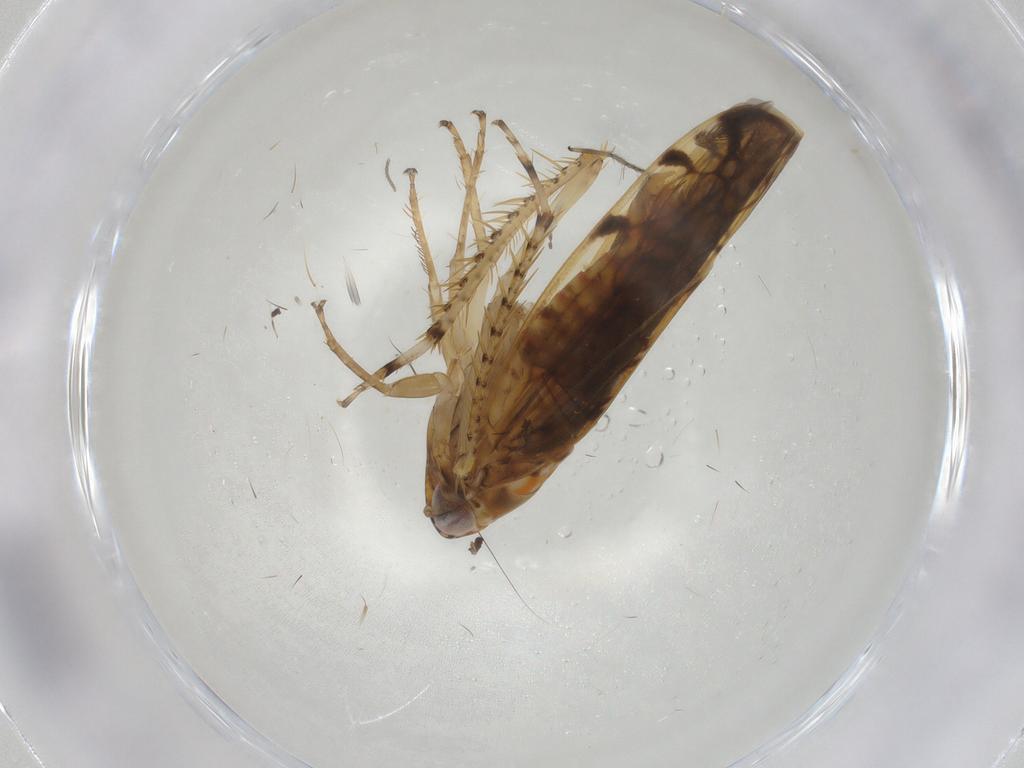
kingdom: Animalia
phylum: Arthropoda
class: Insecta
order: Hemiptera
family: Cicadellidae
